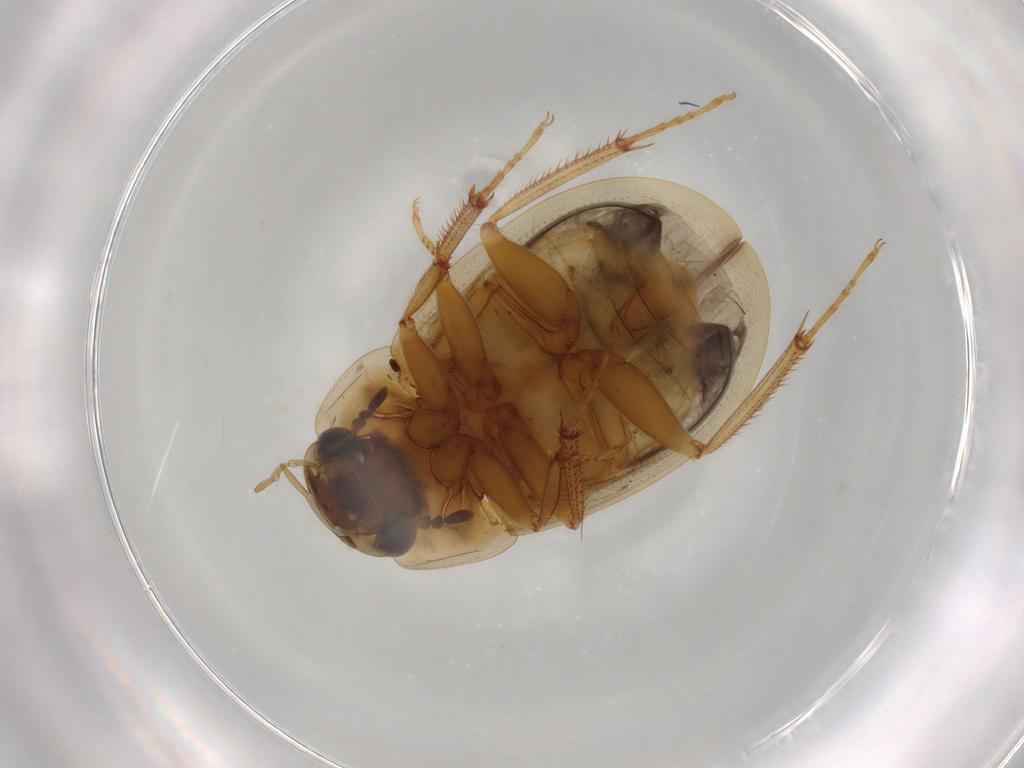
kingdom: Animalia
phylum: Arthropoda
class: Insecta
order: Coleoptera
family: Hydrophilidae
